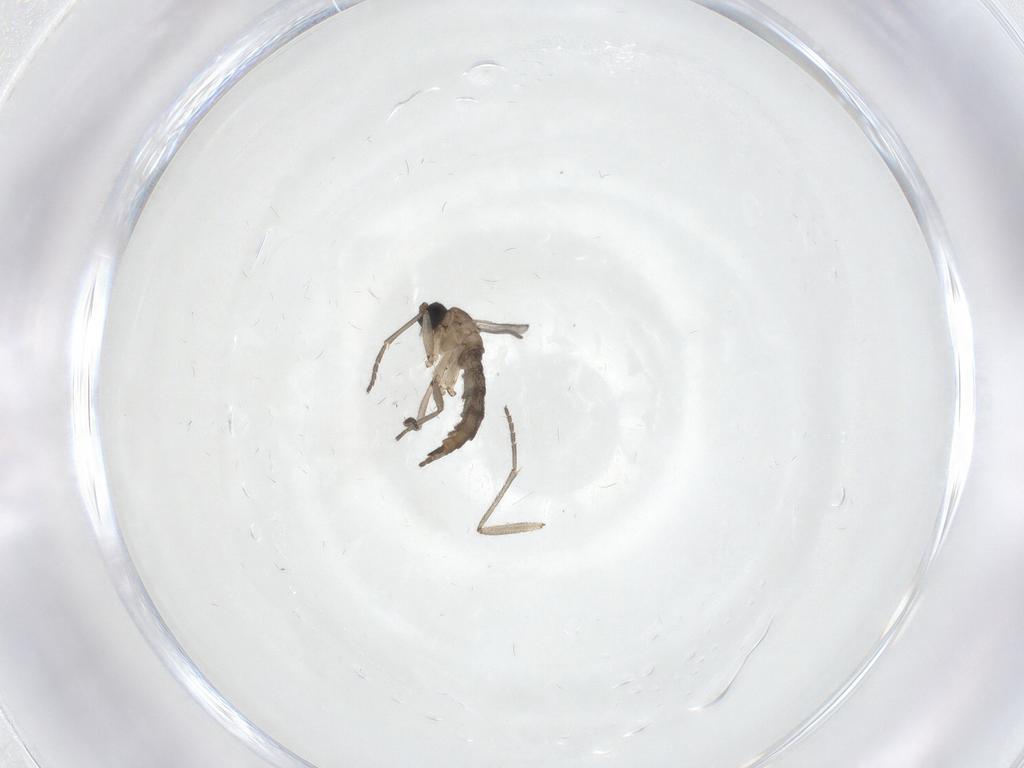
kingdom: Animalia
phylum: Arthropoda
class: Insecta
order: Diptera
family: Sciaridae
